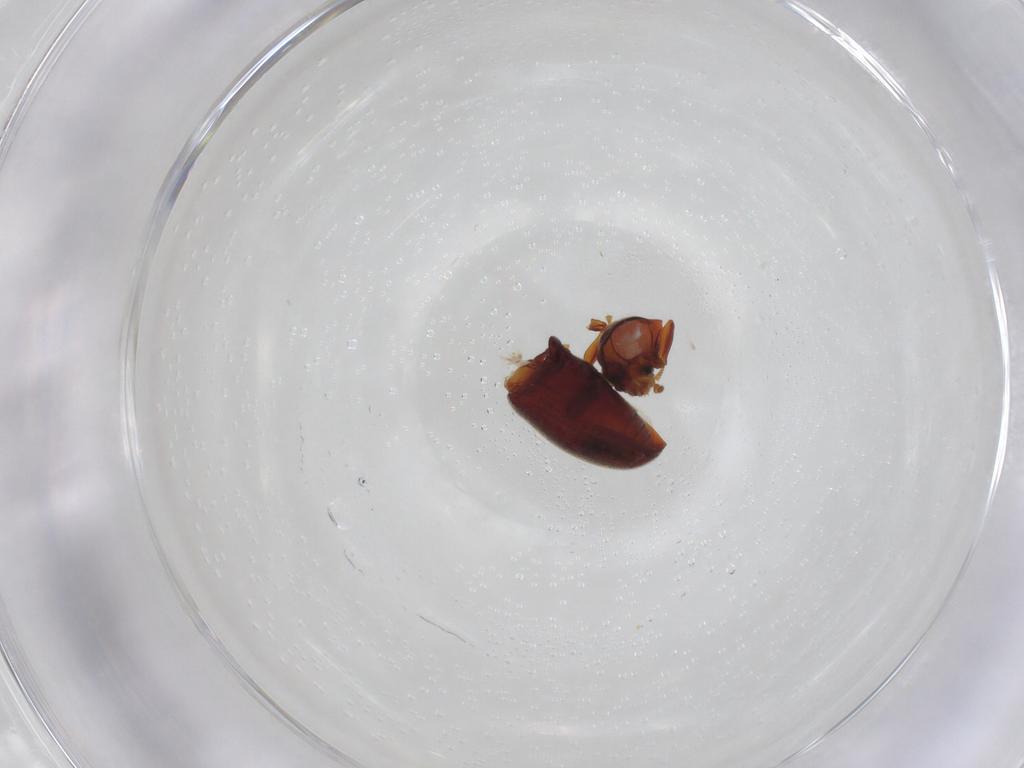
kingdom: Animalia
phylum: Arthropoda
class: Insecta
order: Coleoptera
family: Anobiidae
